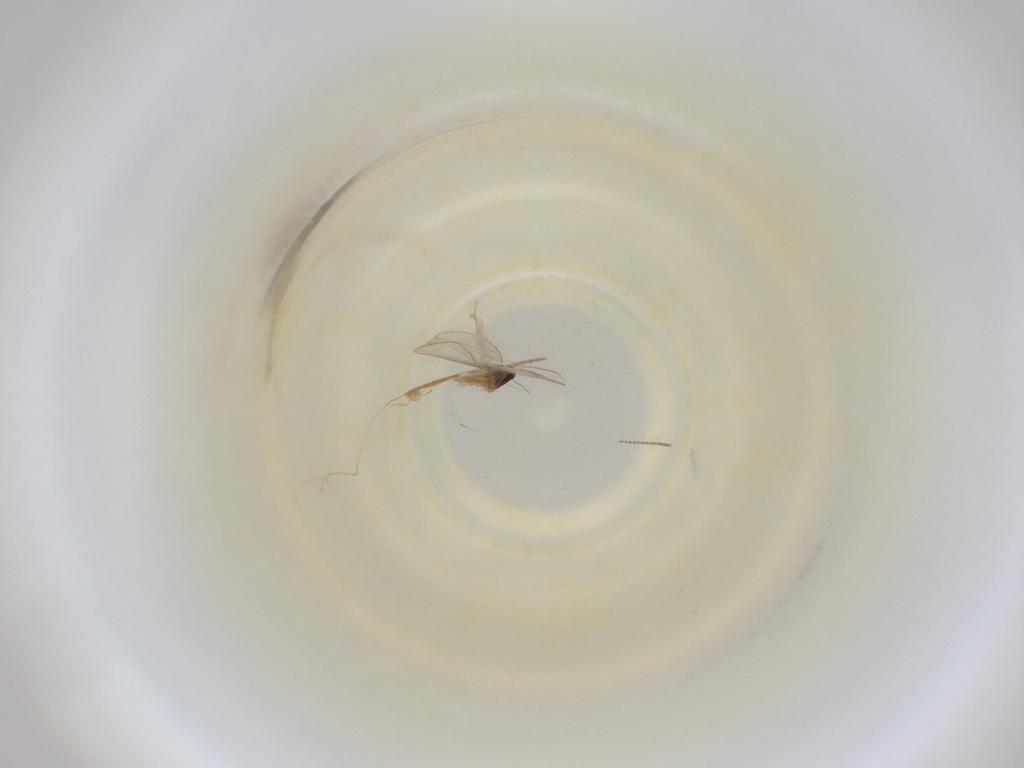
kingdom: Animalia
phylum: Arthropoda
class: Insecta
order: Diptera
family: Cecidomyiidae
